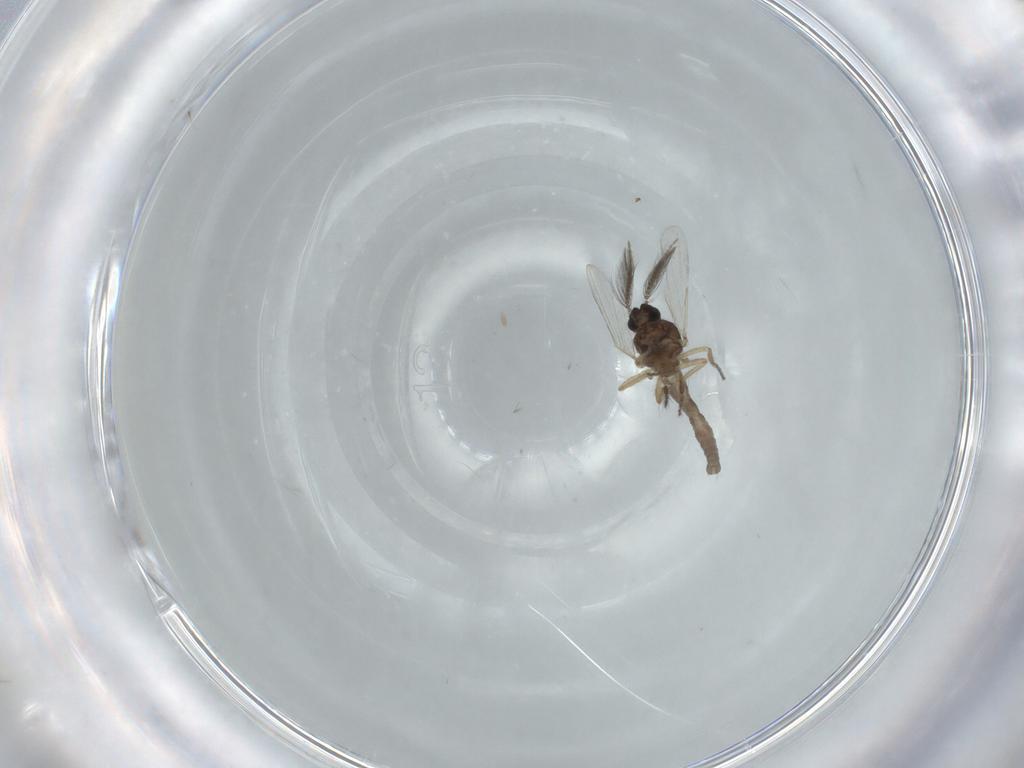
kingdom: Animalia
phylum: Arthropoda
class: Insecta
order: Diptera
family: Ceratopogonidae
